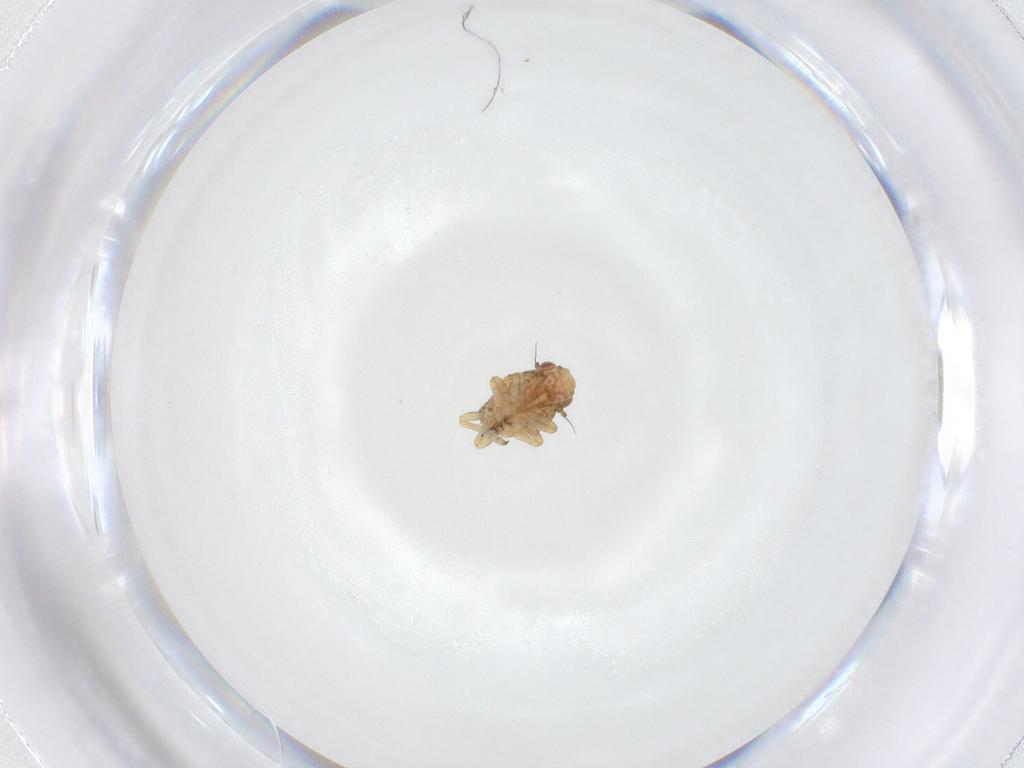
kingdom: Animalia
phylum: Arthropoda
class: Insecta
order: Hemiptera
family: Tropiduchidae
